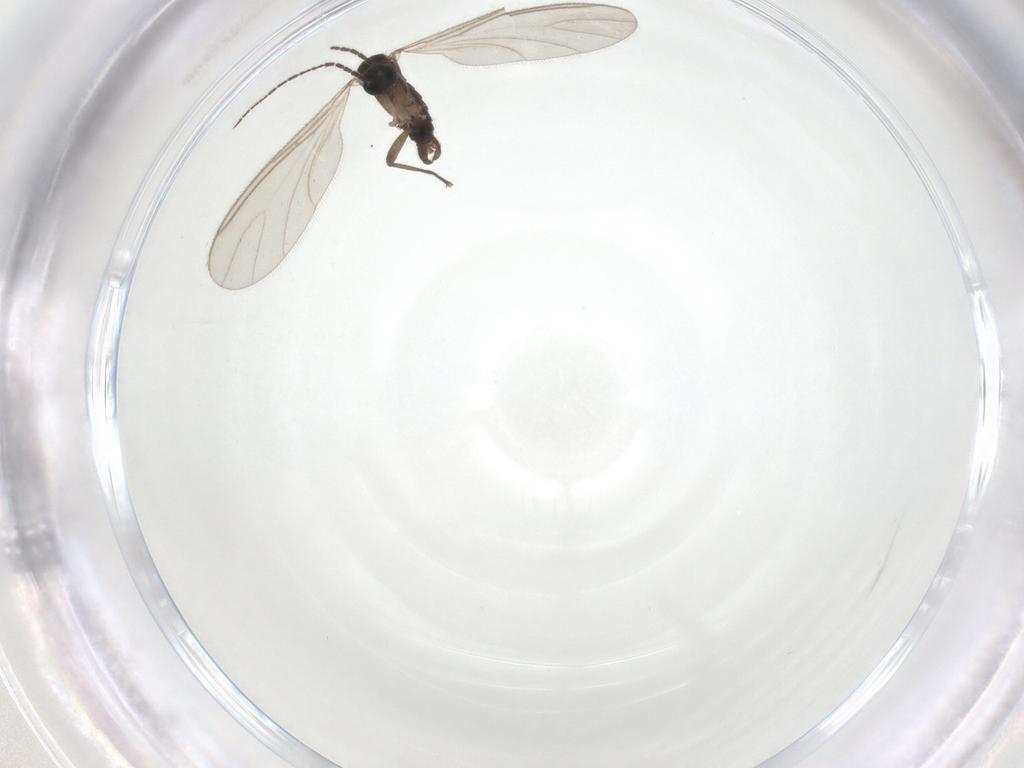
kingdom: Animalia
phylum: Arthropoda
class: Insecta
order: Diptera
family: Sciaridae
